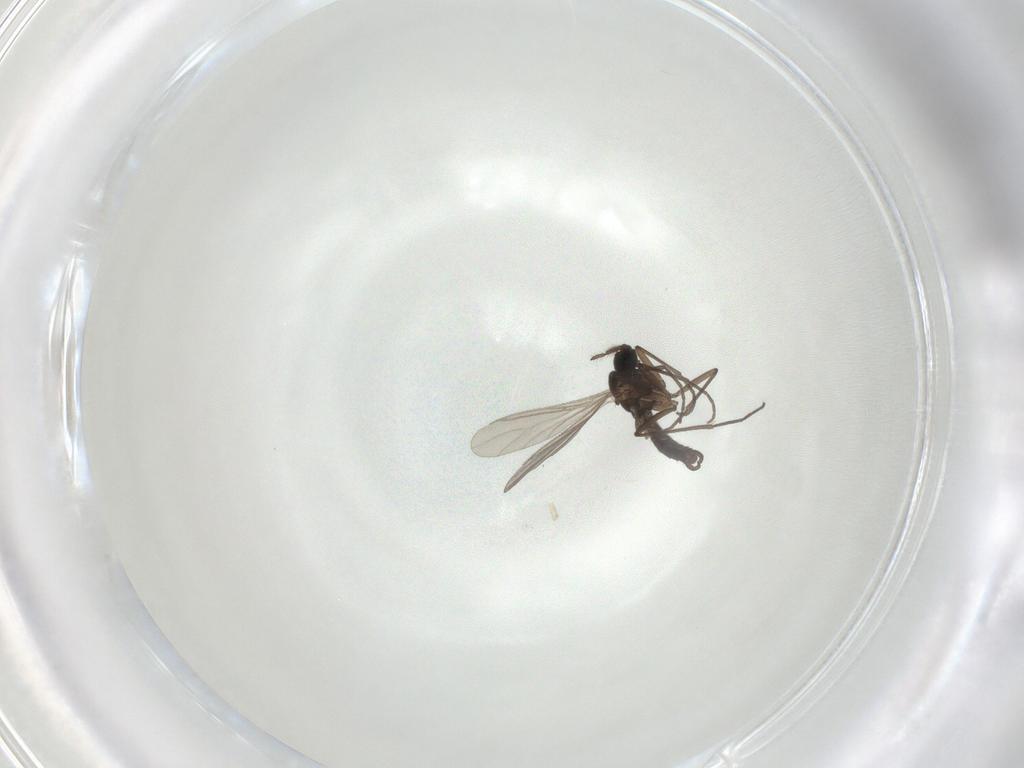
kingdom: Animalia
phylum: Arthropoda
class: Insecta
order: Diptera
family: Sciaridae
